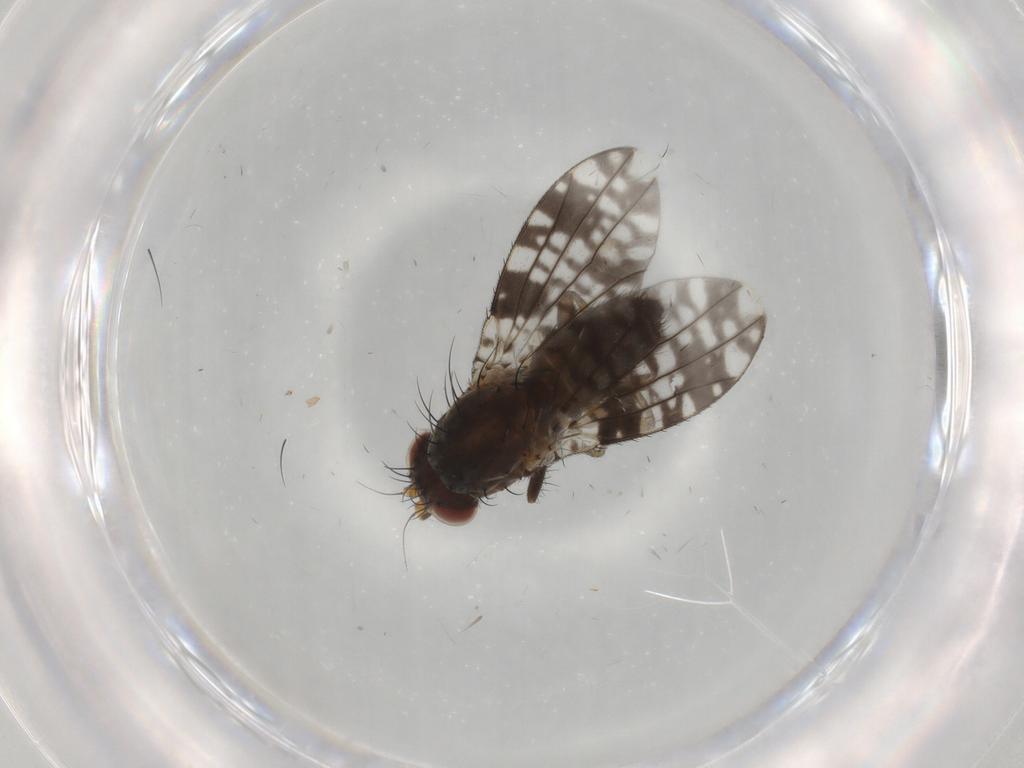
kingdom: Animalia
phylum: Arthropoda
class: Insecta
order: Diptera
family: Tephritidae
